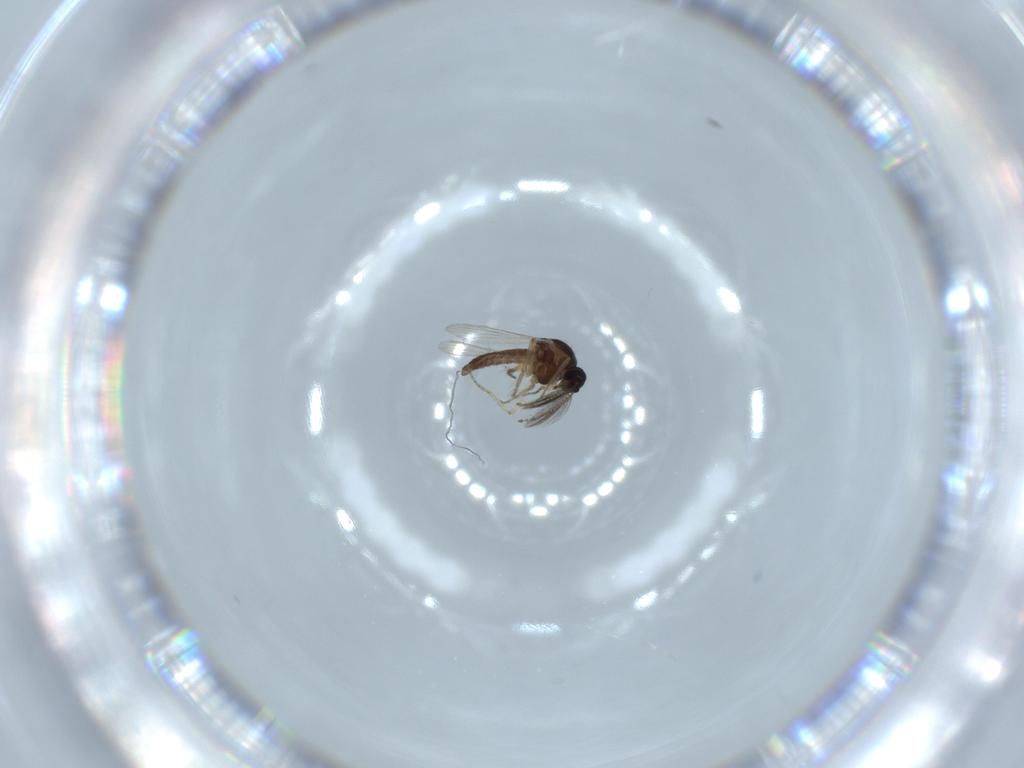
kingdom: Animalia
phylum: Arthropoda
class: Insecta
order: Diptera
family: Ceratopogonidae
